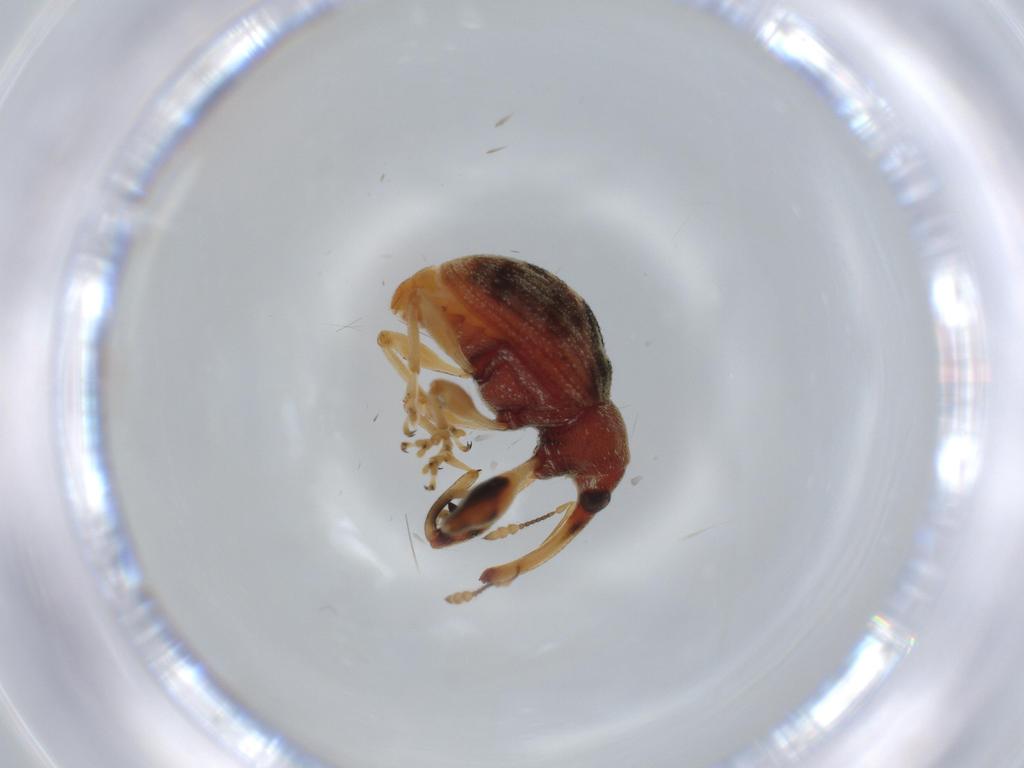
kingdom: Animalia
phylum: Arthropoda
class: Insecta
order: Coleoptera
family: Curculionidae
